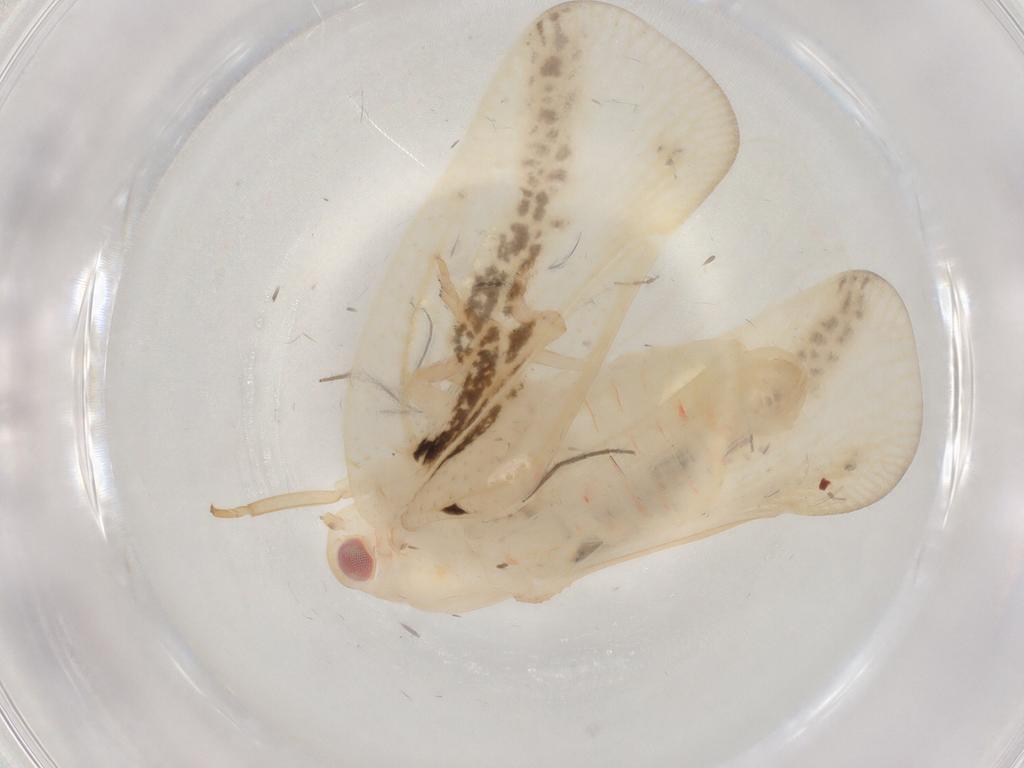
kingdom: Animalia
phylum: Arthropoda
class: Insecta
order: Hemiptera
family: Flatidae
